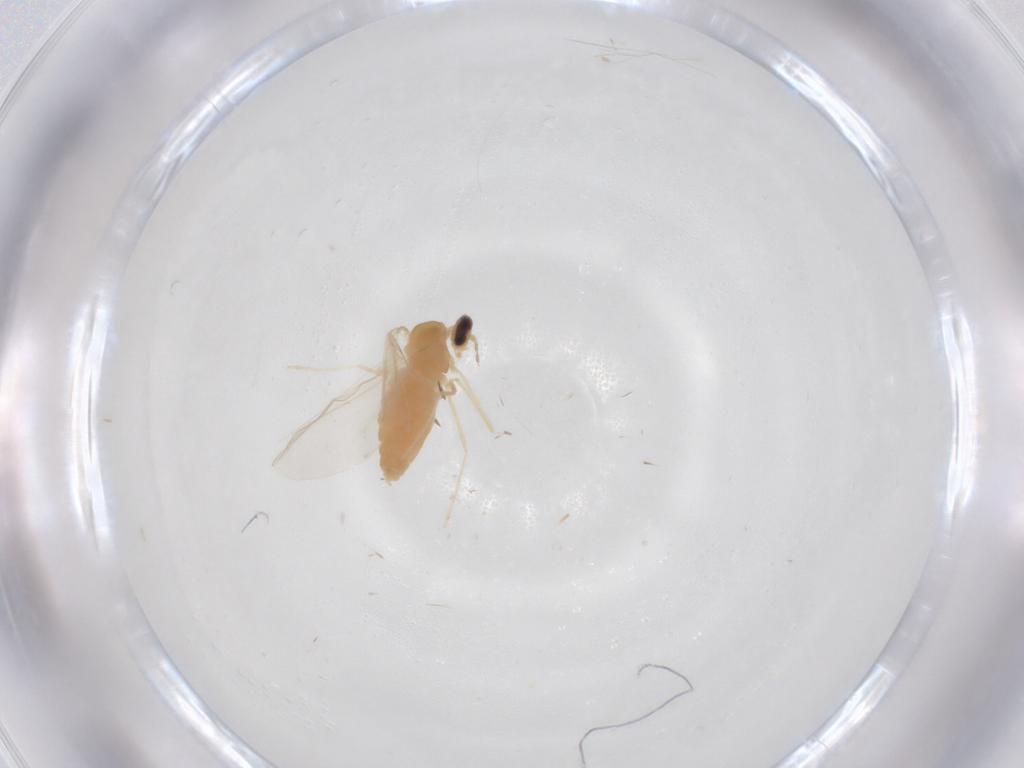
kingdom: Animalia
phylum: Arthropoda
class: Insecta
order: Diptera
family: Cecidomyiidae
